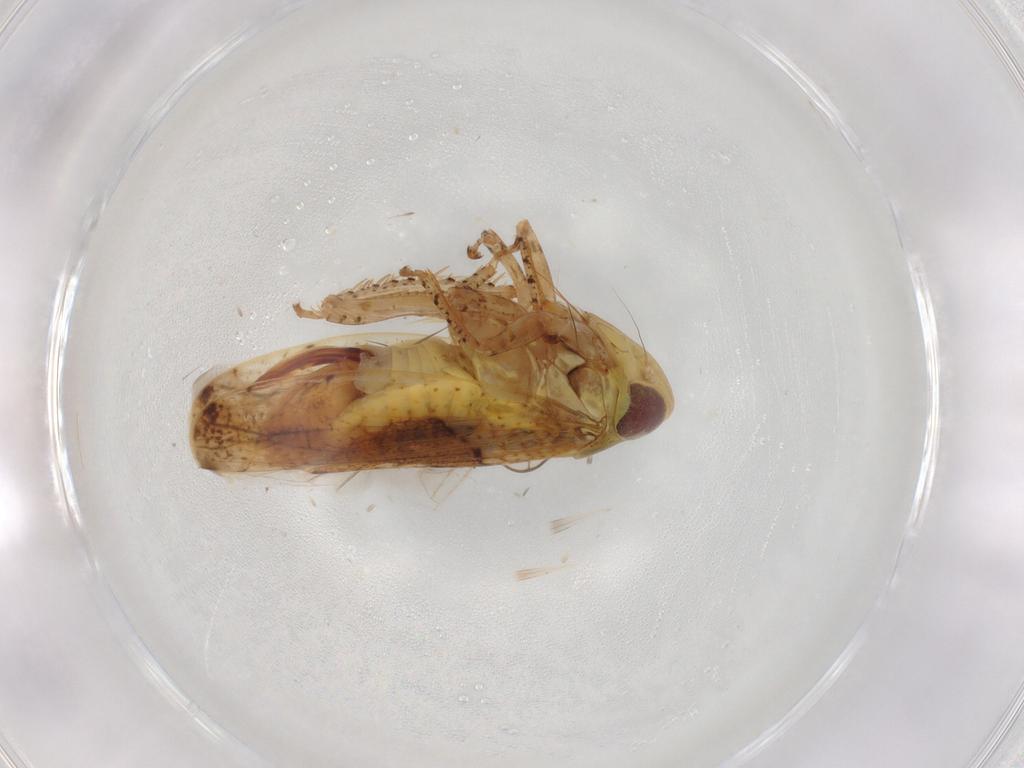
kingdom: Animalia
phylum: Arthropoda
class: Insecta
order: Hemiptera
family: Cicadellidae
